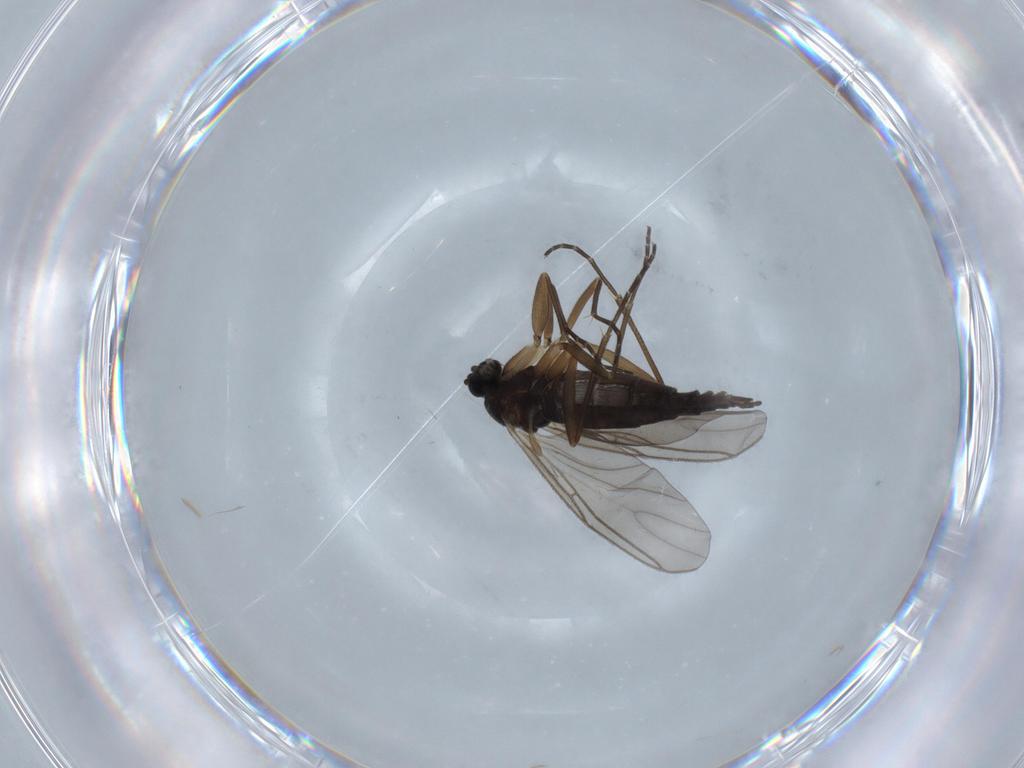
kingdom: Animalia
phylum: Arthropoda
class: Insecta
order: Diptera
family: Sciaridae
